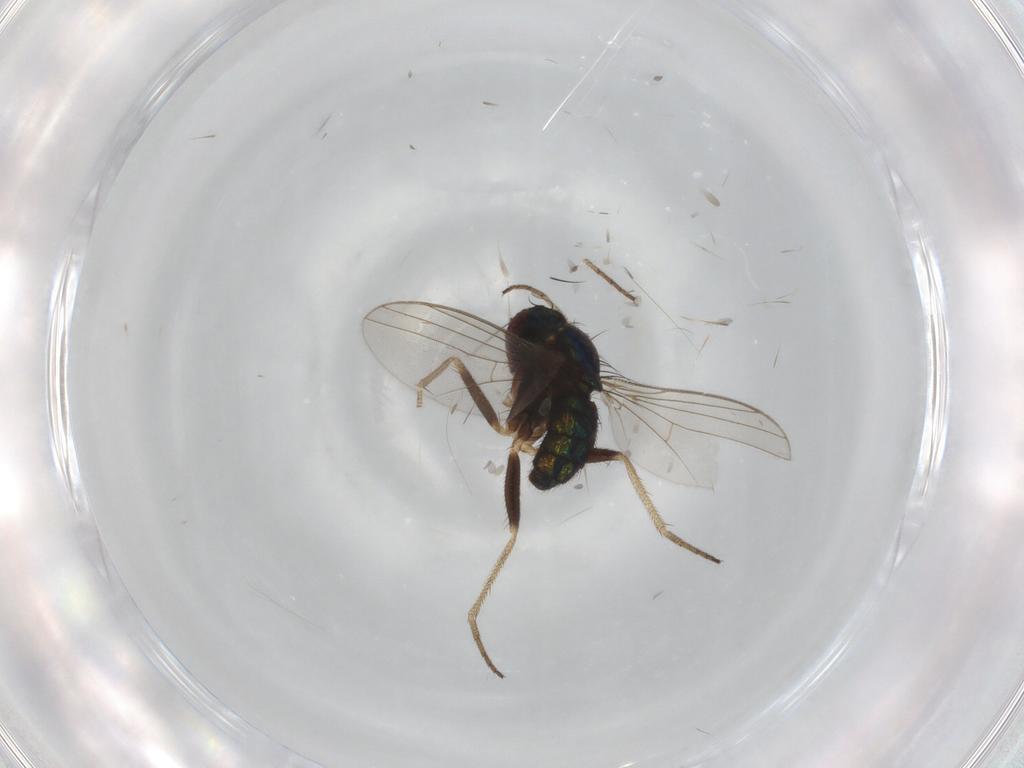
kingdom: Animalia
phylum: Arthropoda
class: Insecta
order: Diptera
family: Dolichopodidae
